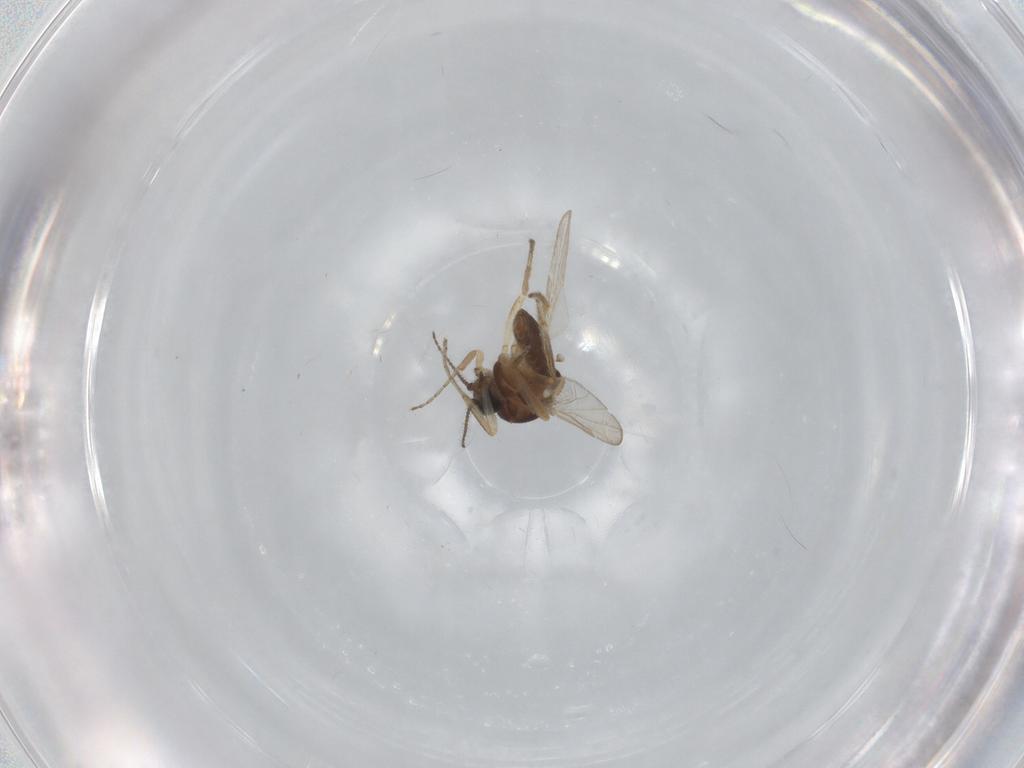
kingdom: Animalia
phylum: Arthropoda
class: Insecta
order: Diptera
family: Ceratopogonidae
